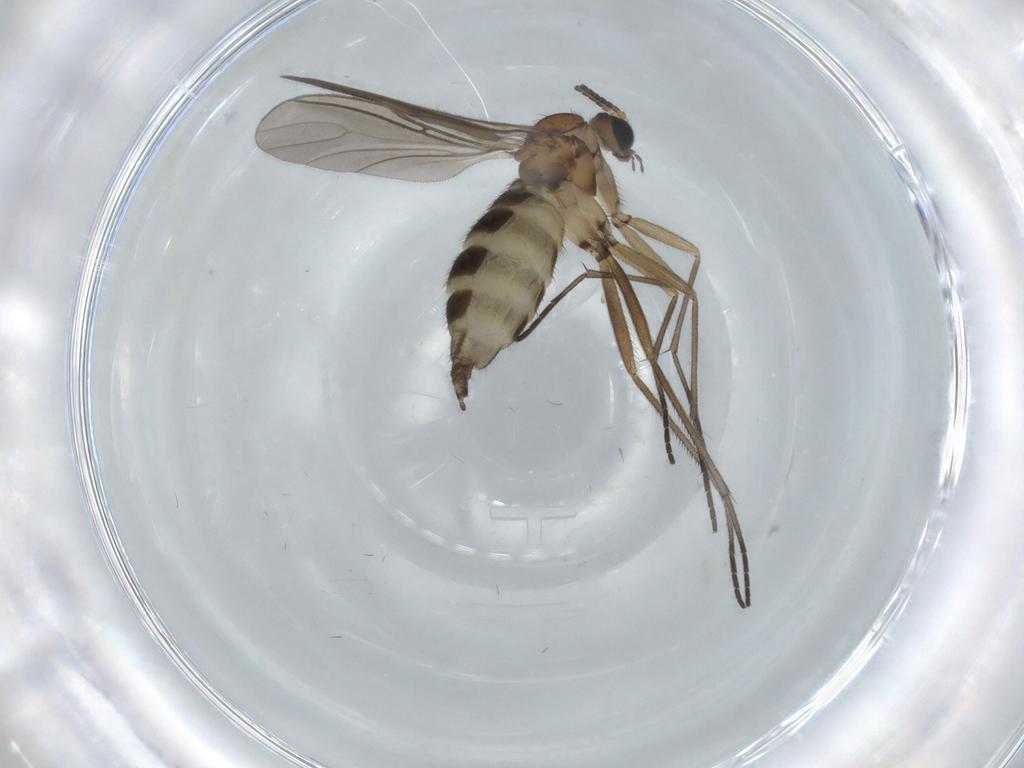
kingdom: Animalia
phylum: Arthropoda
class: Insecta
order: Diptera
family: Sciaridae
